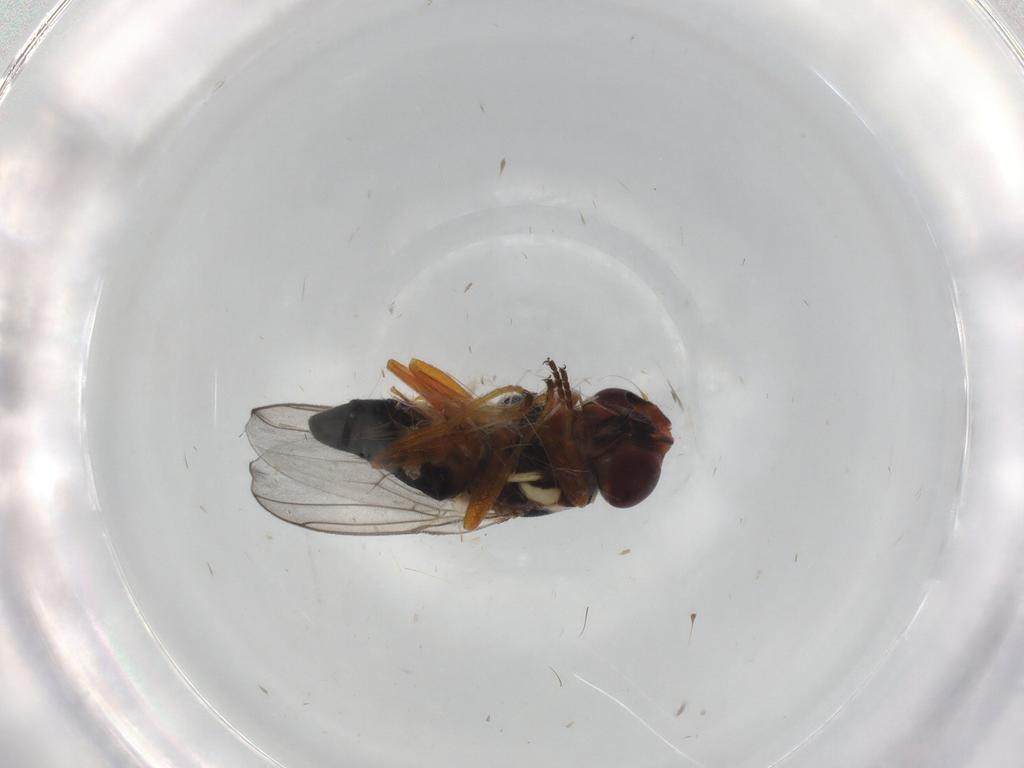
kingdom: Animalia
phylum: Arthropoda
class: Insecta
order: Diptera
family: Chloropidae
